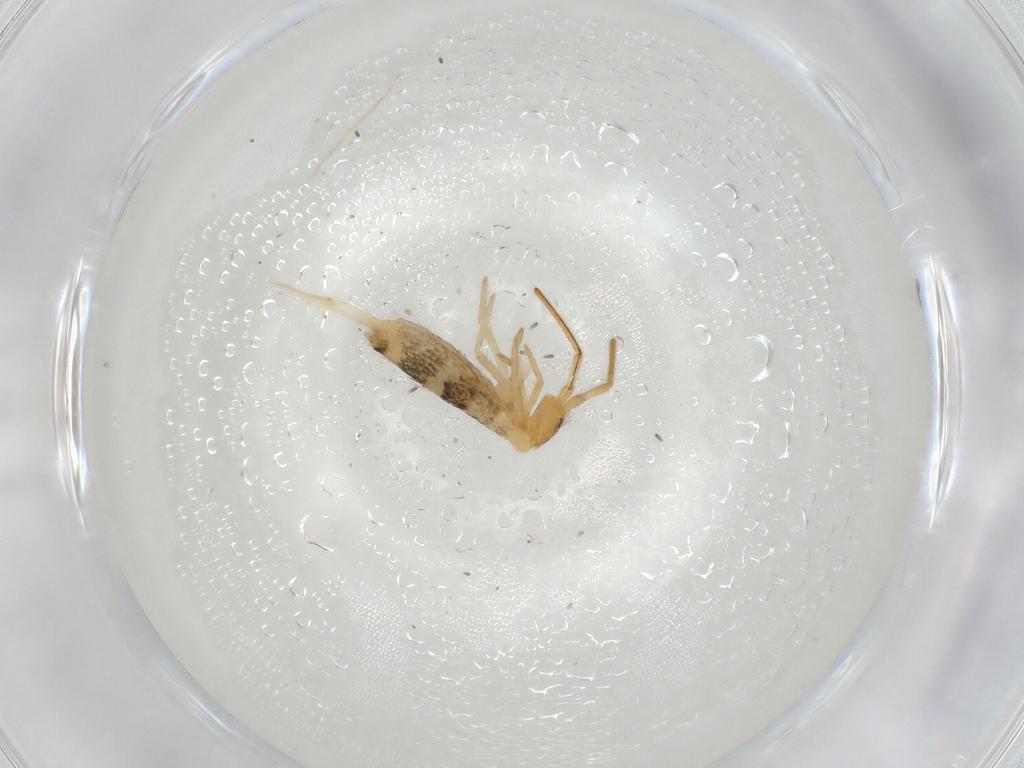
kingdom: Animalia
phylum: Arthropoda
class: Collembola
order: Entomobryomorpha
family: Entomobryidae
